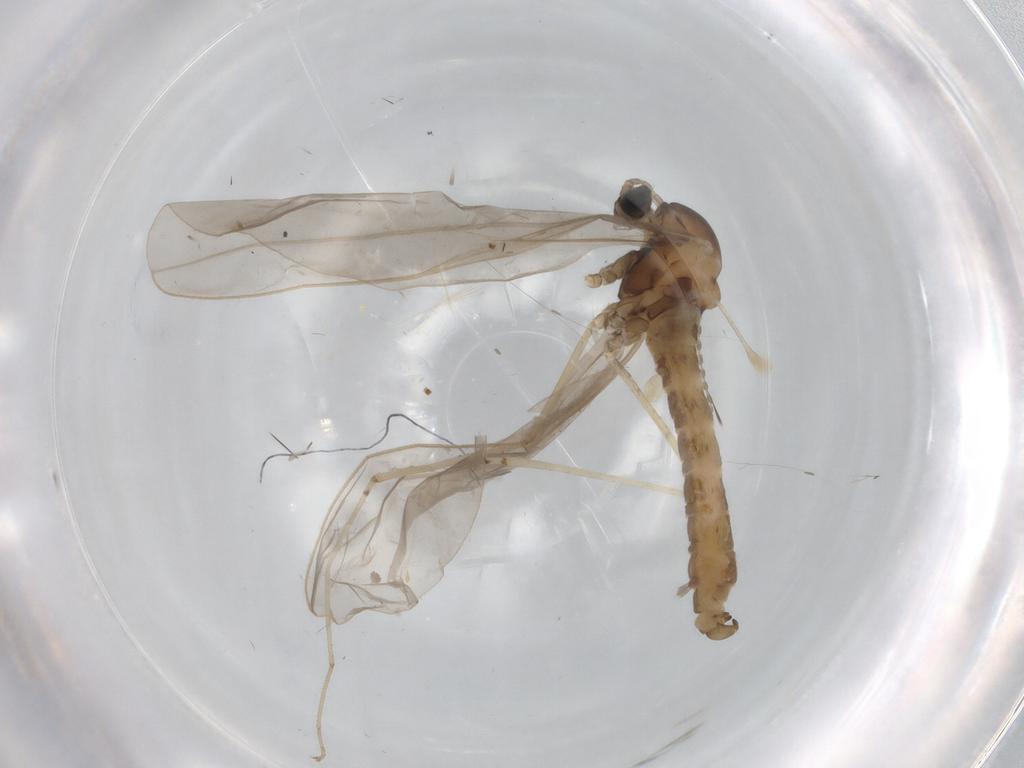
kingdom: Animalia
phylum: Arthropoda
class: Insecta
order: Diptera
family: Cecidomyiidae
